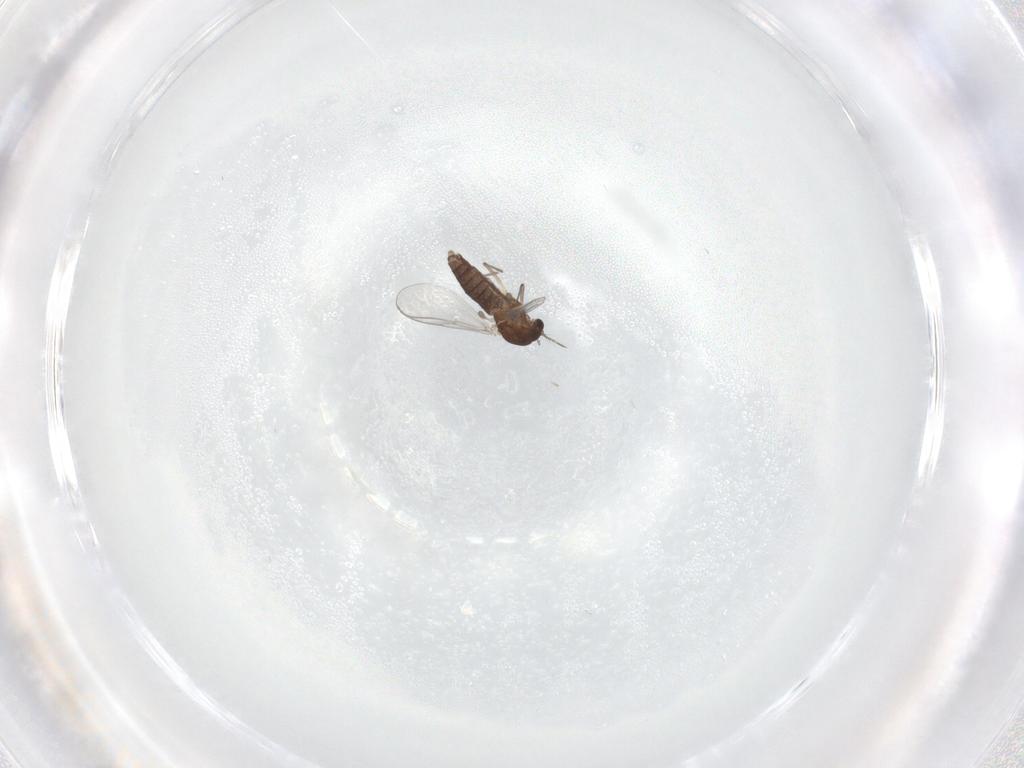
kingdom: Animalia
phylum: Arthropoda
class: Insecta
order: Diptera
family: Chironomidae
